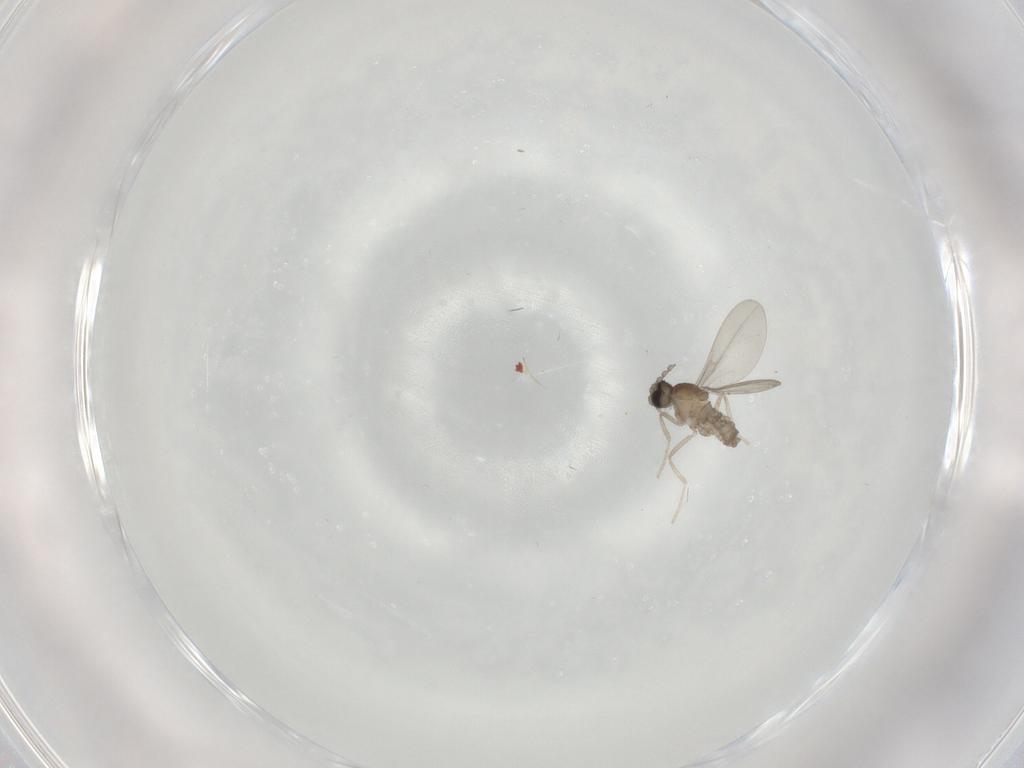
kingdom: Animalia
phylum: Arthropoda
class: Insecta
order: Diptera
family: Cecidomyiidae
